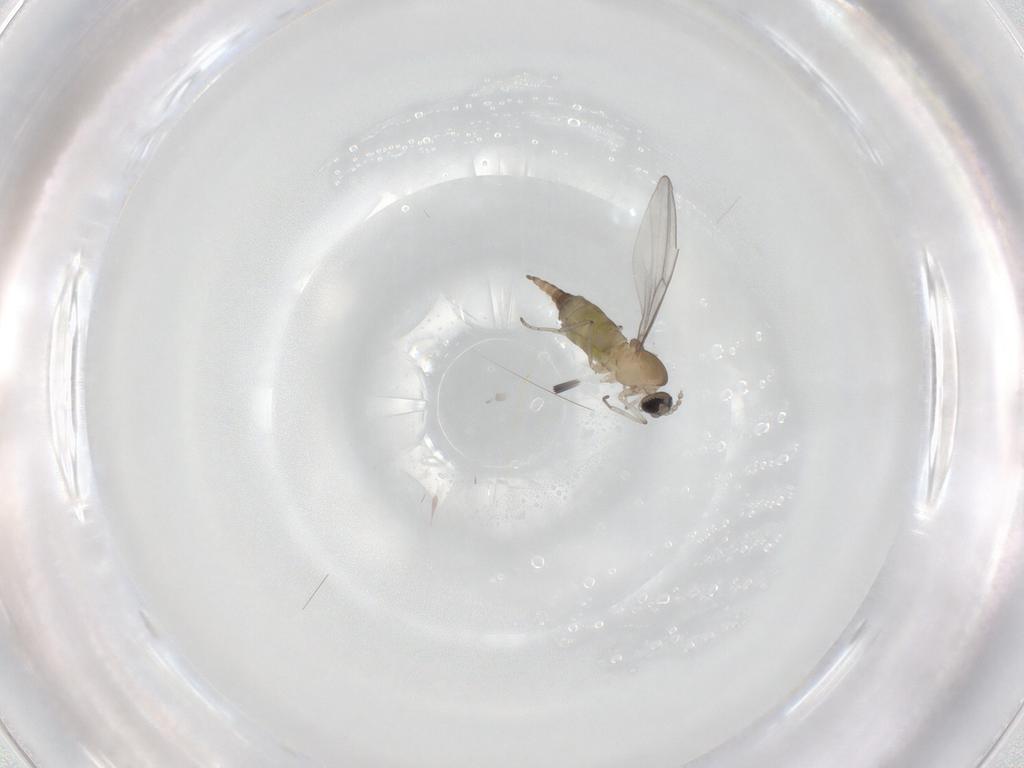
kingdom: Animalia
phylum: Arthropoda
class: Insecta
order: Diptera
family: Cecidomyiidae
